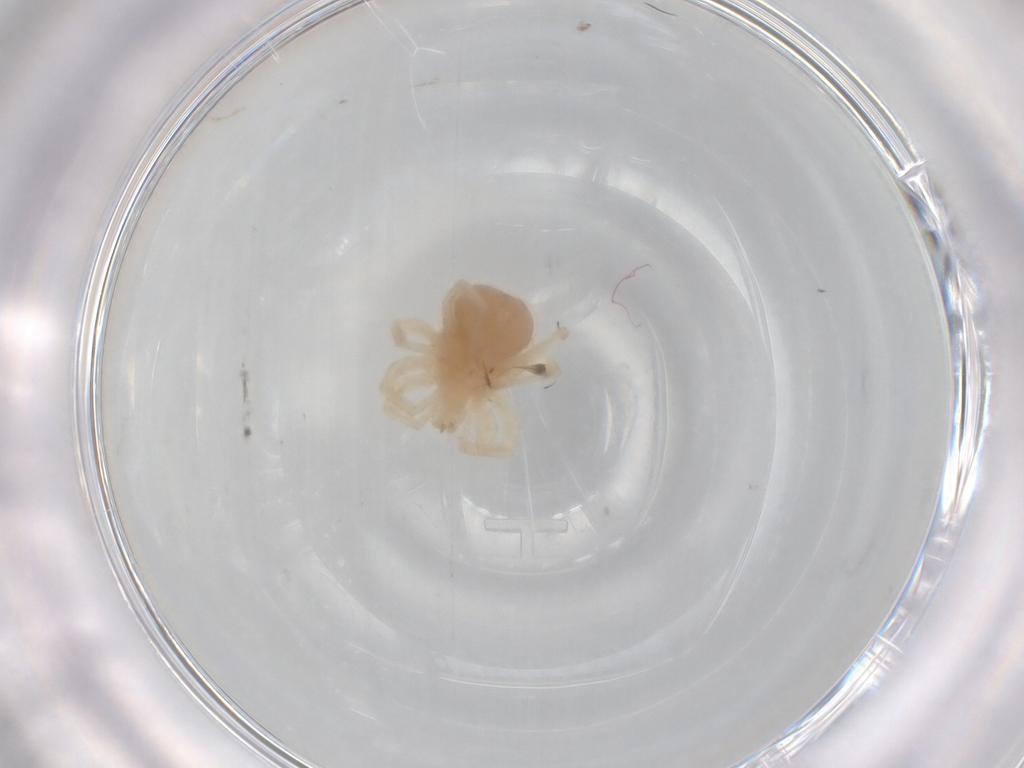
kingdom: Animalia
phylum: Arthropoda
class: Arachnida
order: Trombidiformes
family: Anystidae
